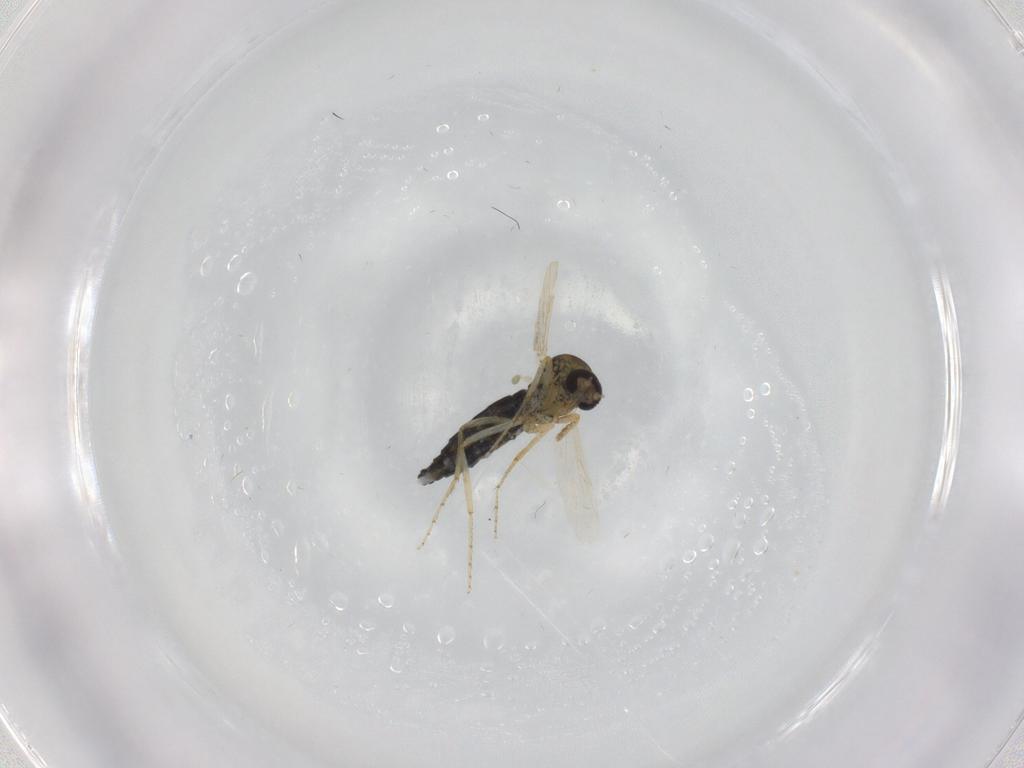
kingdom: Animalia
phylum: Arthropoda
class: Insecta
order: Diptera
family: Ceratopogonidae
